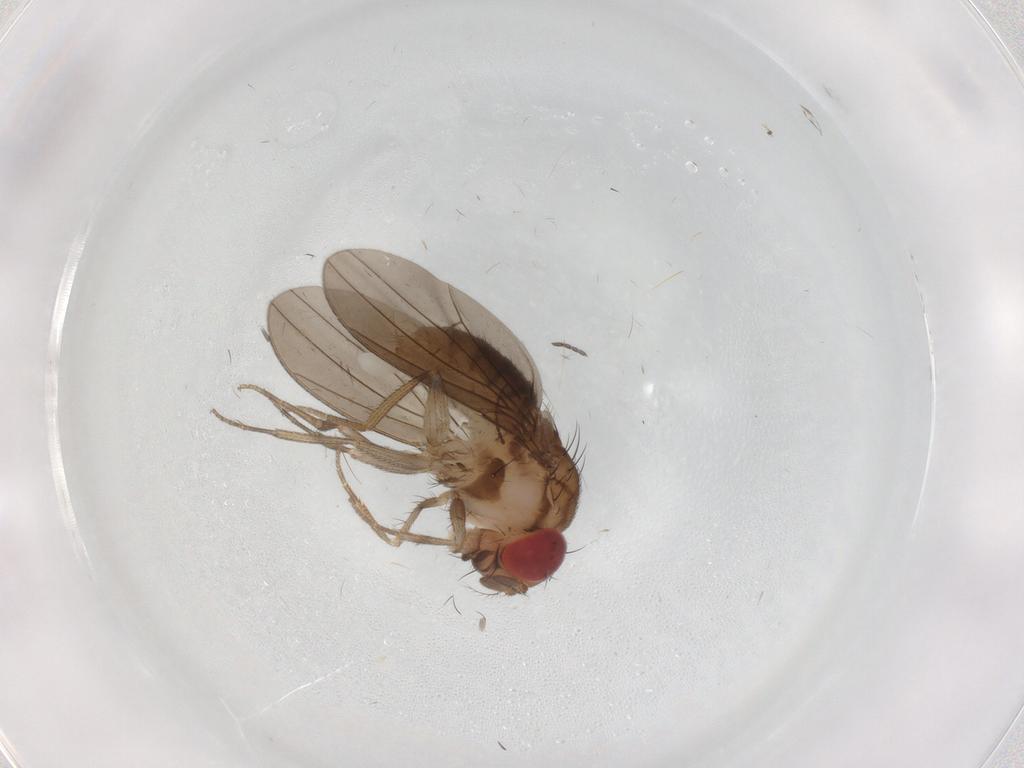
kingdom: Animalia
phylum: Arthropoda
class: Insecta
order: Diptera
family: Drosophilidae
